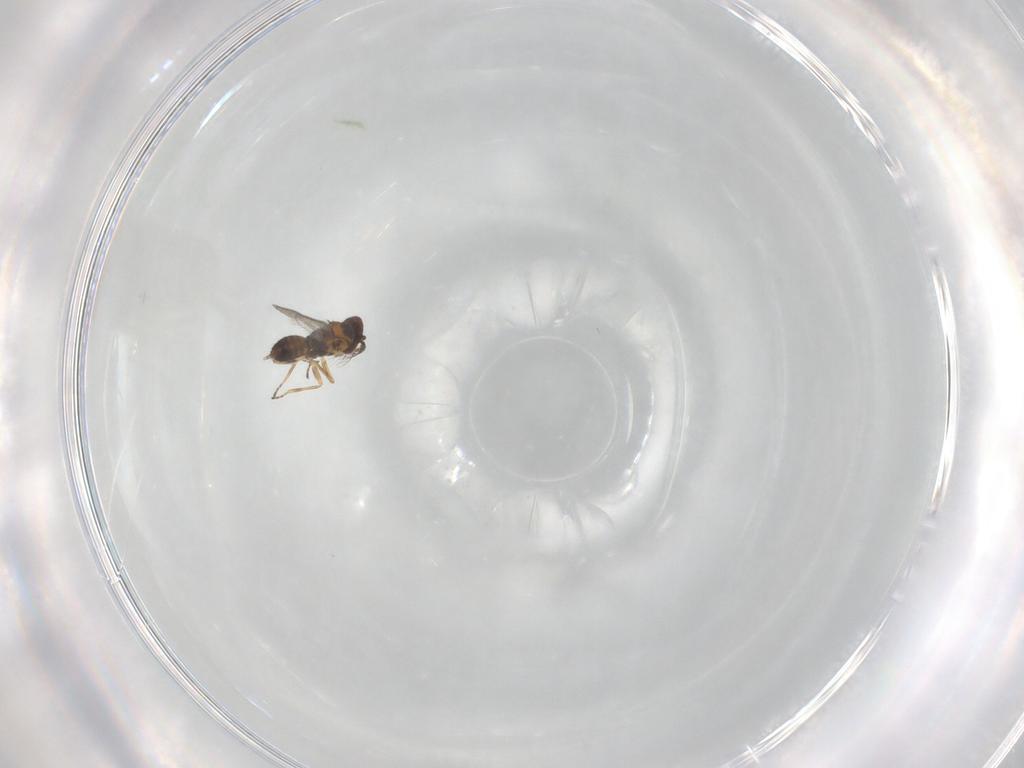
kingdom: Animalia
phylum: Arthropoda
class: Insecta
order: Hymenoptera
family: Eulophidae
